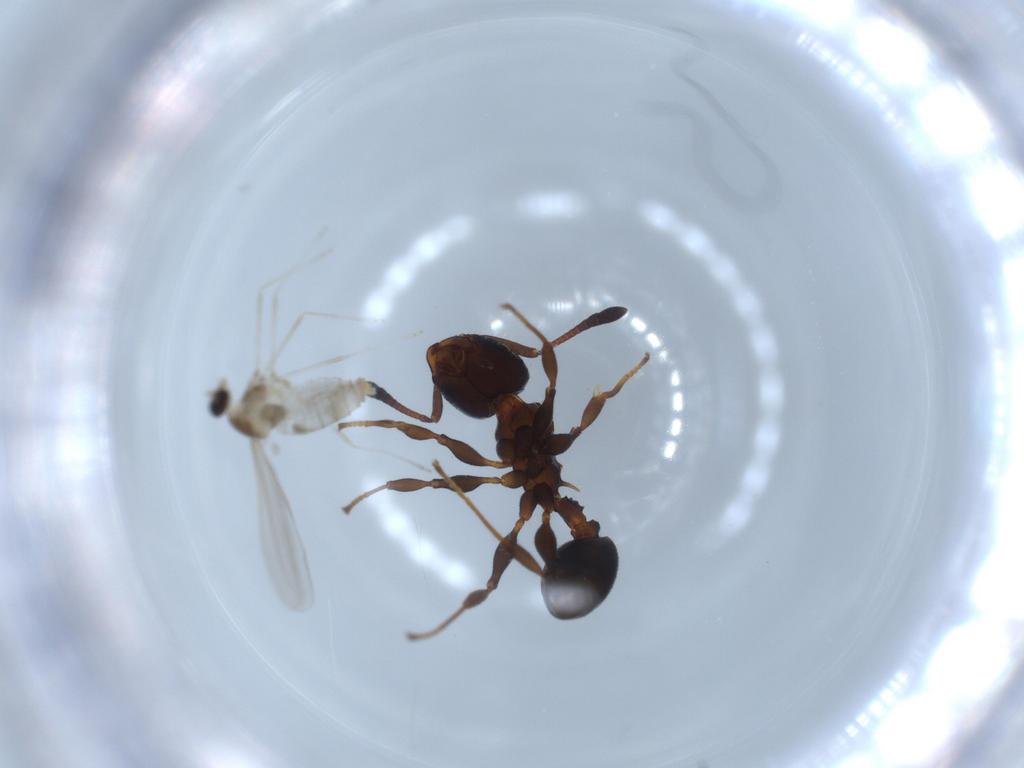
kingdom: Animalia
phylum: Arthropoda
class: Insecta
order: Diptera
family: Cecidomyiidae
